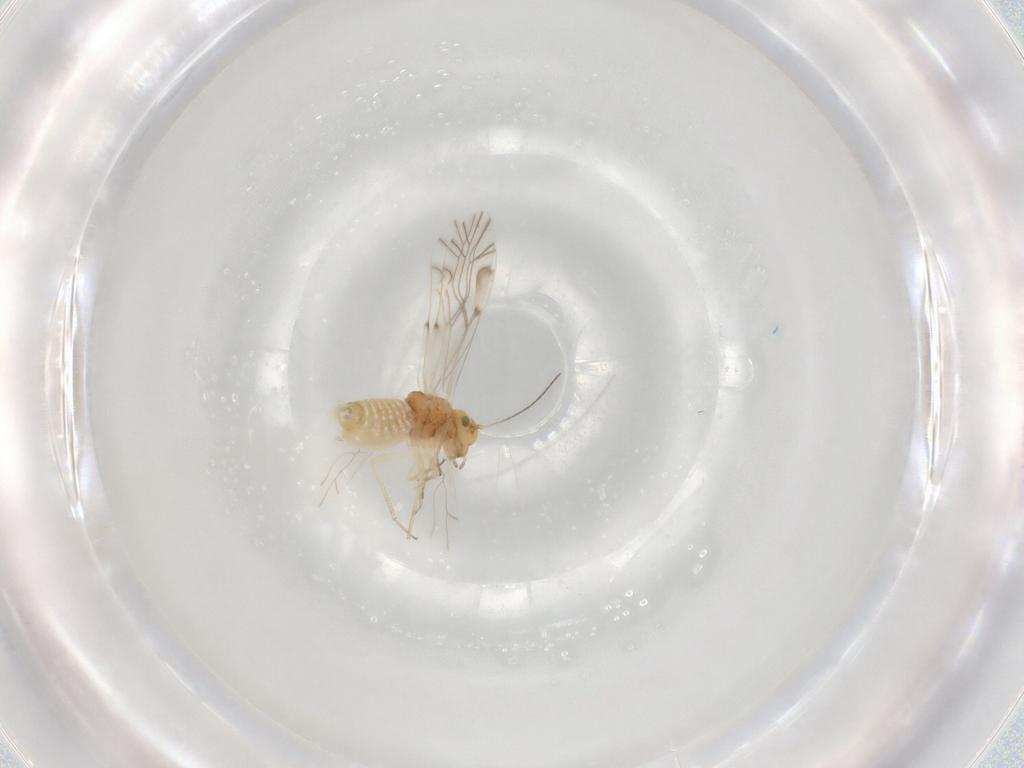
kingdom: Animalia
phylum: Arthropoda
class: Insecta
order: Psocodea
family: Lachesillidae
